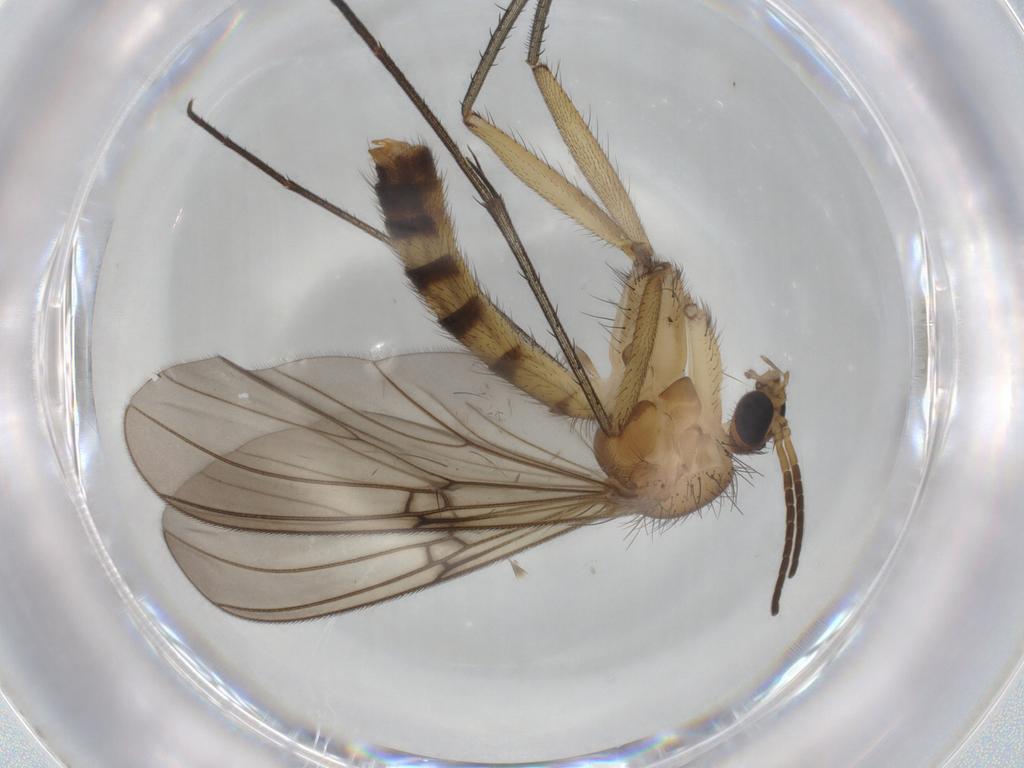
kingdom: Animalia
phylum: Arthropoda
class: Insecta
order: Diptera
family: Mycetophilidae
